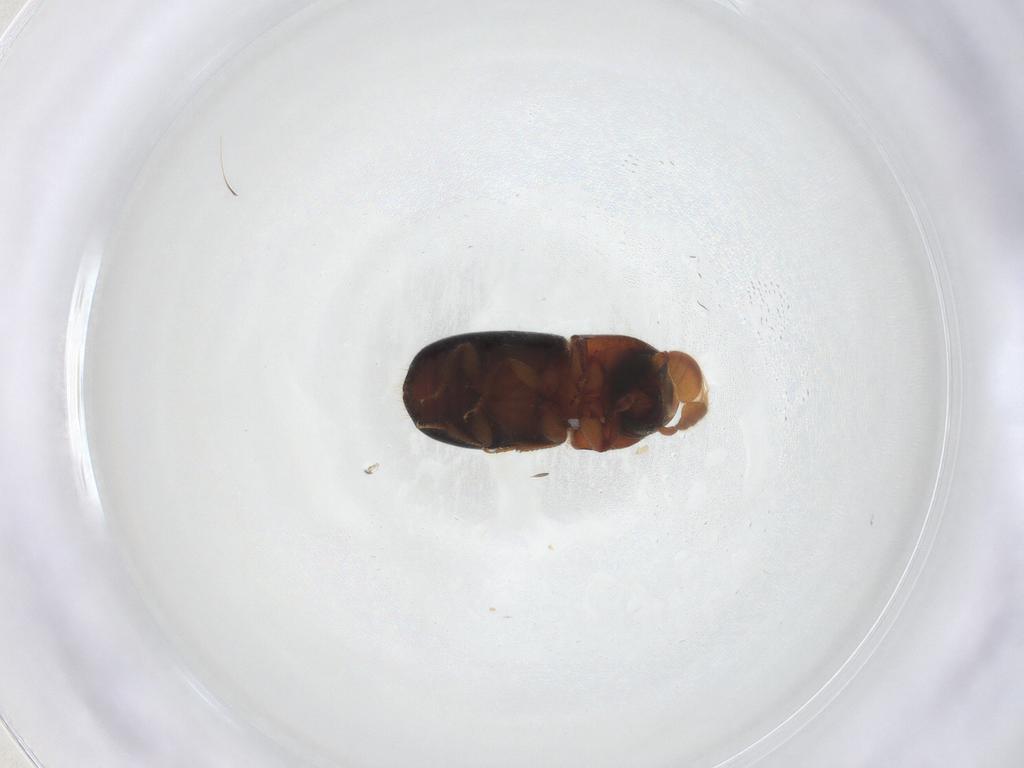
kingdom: Animalia
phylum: Arthropoda
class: Insecta
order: Coleoptera
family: Curculionidae
